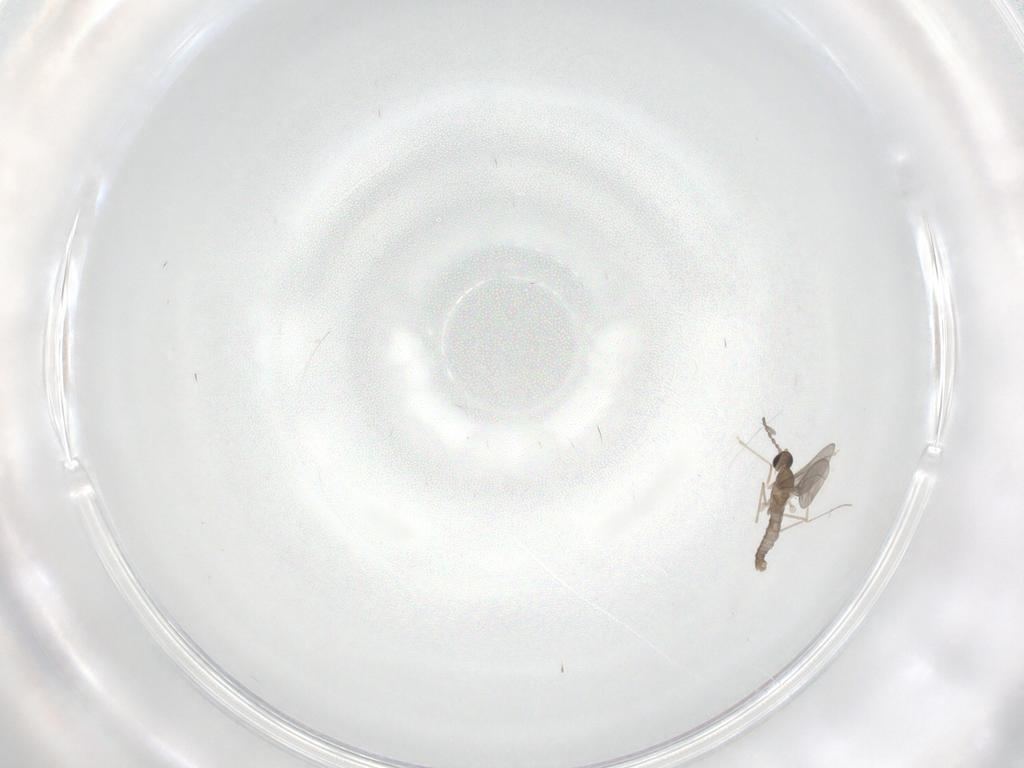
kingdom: Animalia
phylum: Arthropoda
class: Insecta
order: Diptera
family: Cecidomyiidae
